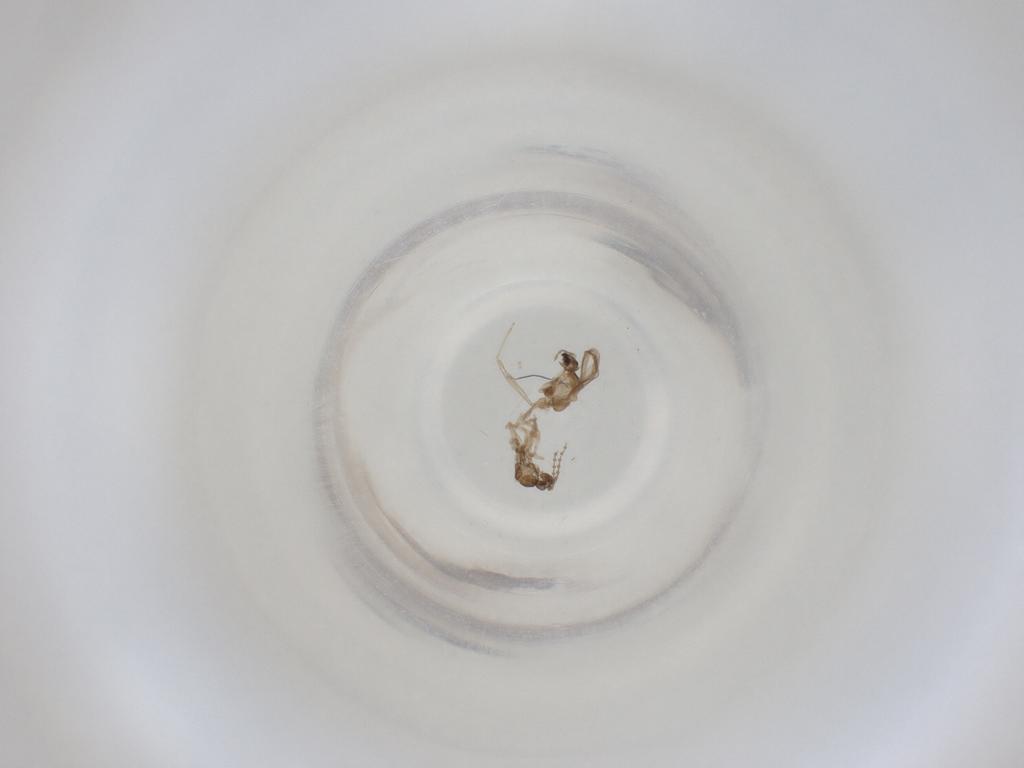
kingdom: Animalia
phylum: Arthropoda
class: Insecta
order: Diptera
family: Cecidomyiidae
